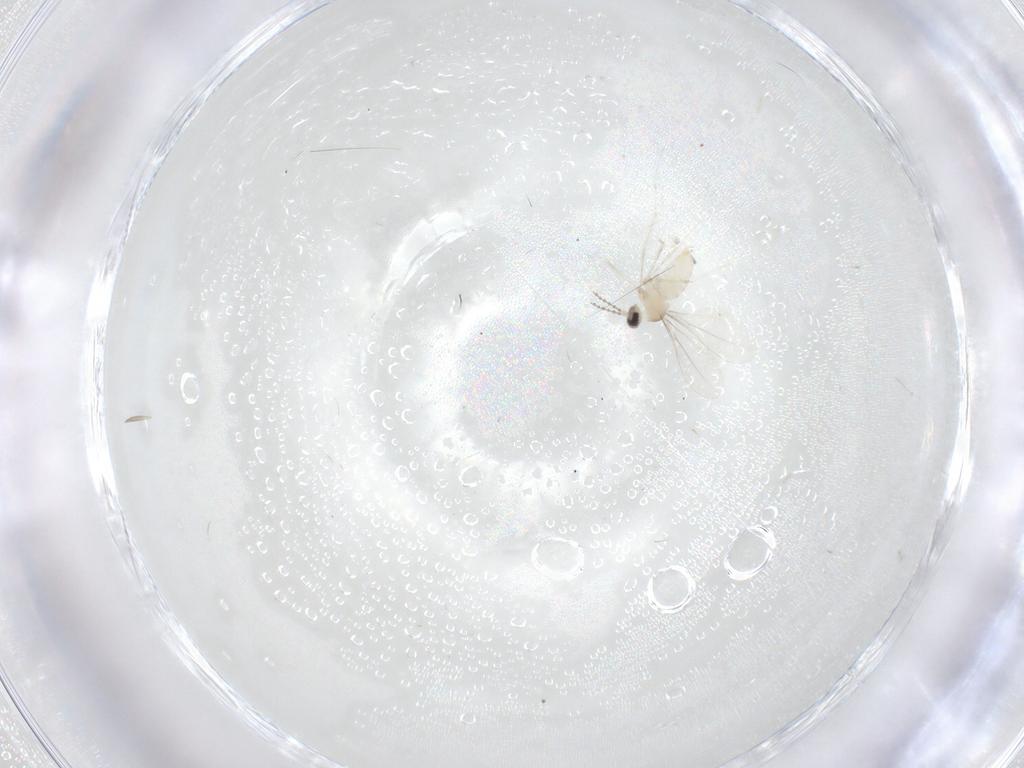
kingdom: Animalia
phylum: Arthropoda
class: Insecta
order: Diptera
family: Cecidomyiidae
